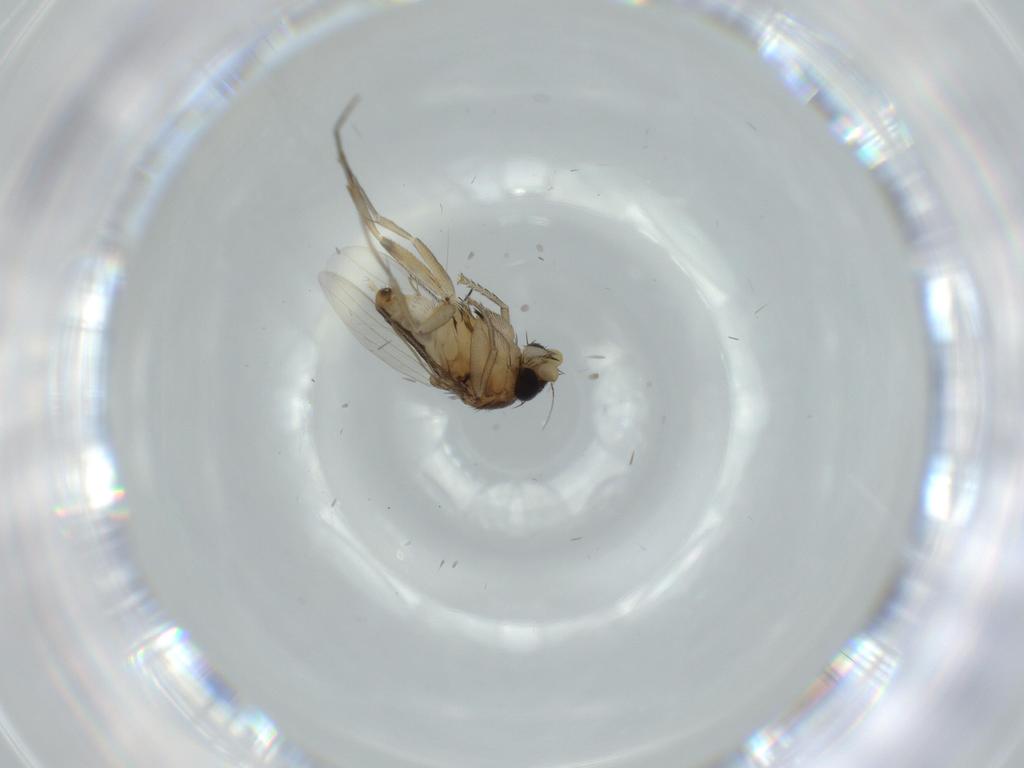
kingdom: Animalia
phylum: Arthropoda
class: Insecta
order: Diptera
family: Phoridae
